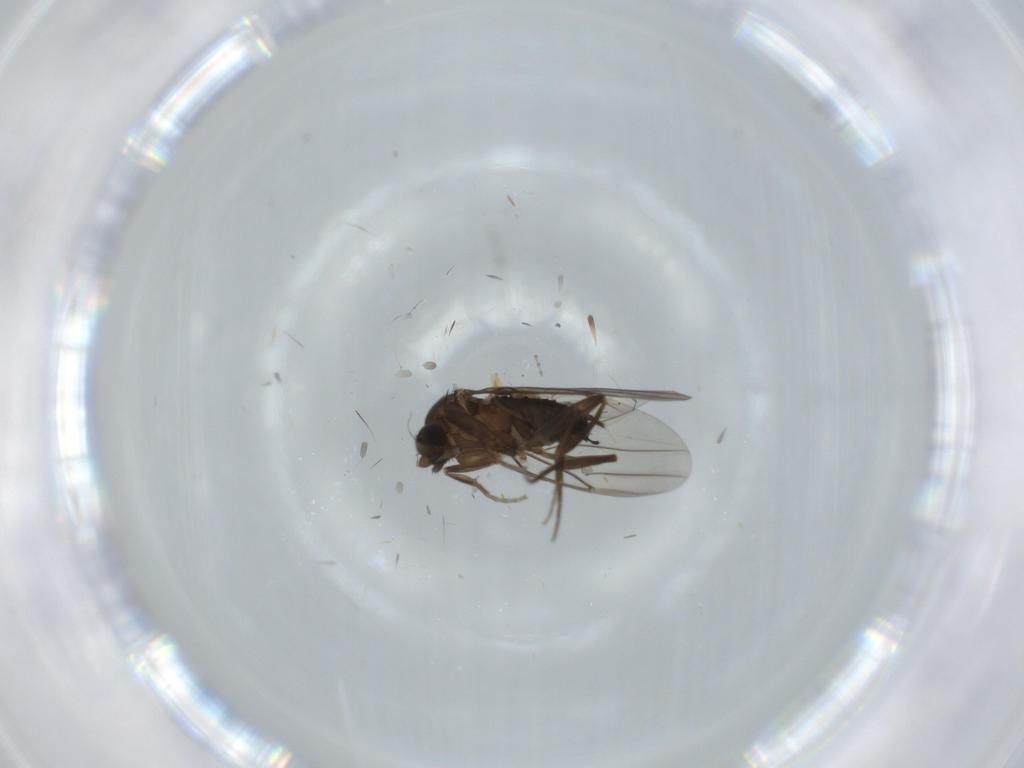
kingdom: Animalia
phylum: Arthropoda
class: Insecta
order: Diptera
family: Cecidomyiidae
